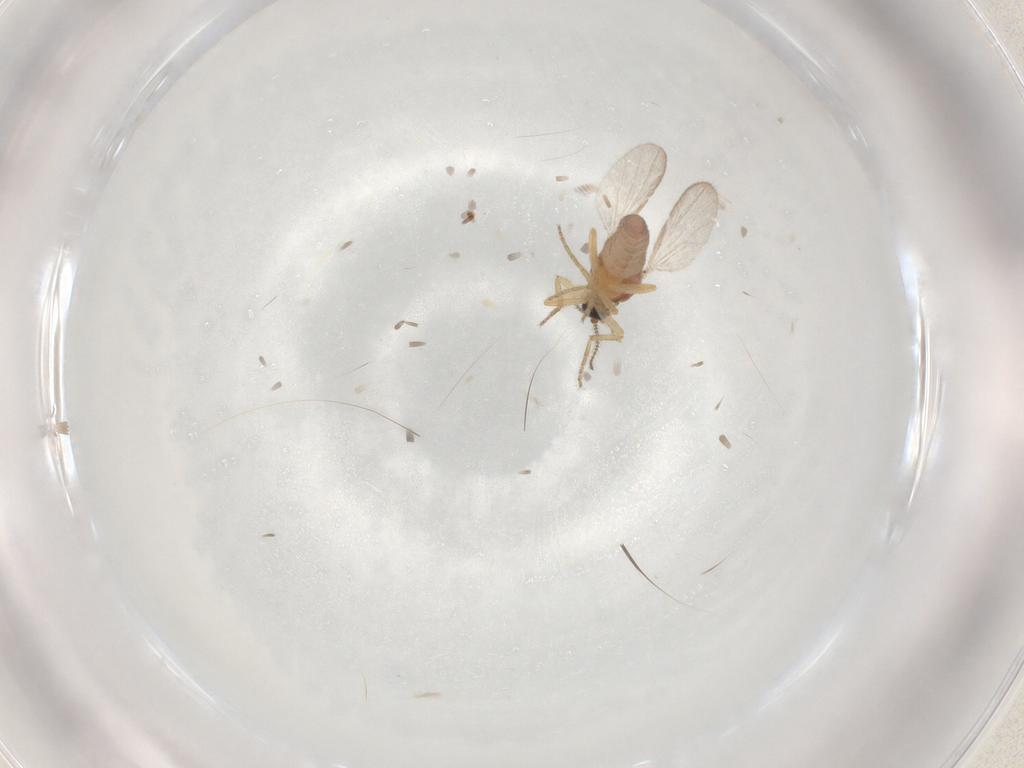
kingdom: Animalia
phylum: Arthropoda
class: Insecta
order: Diptera
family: Ceratopogonidae
